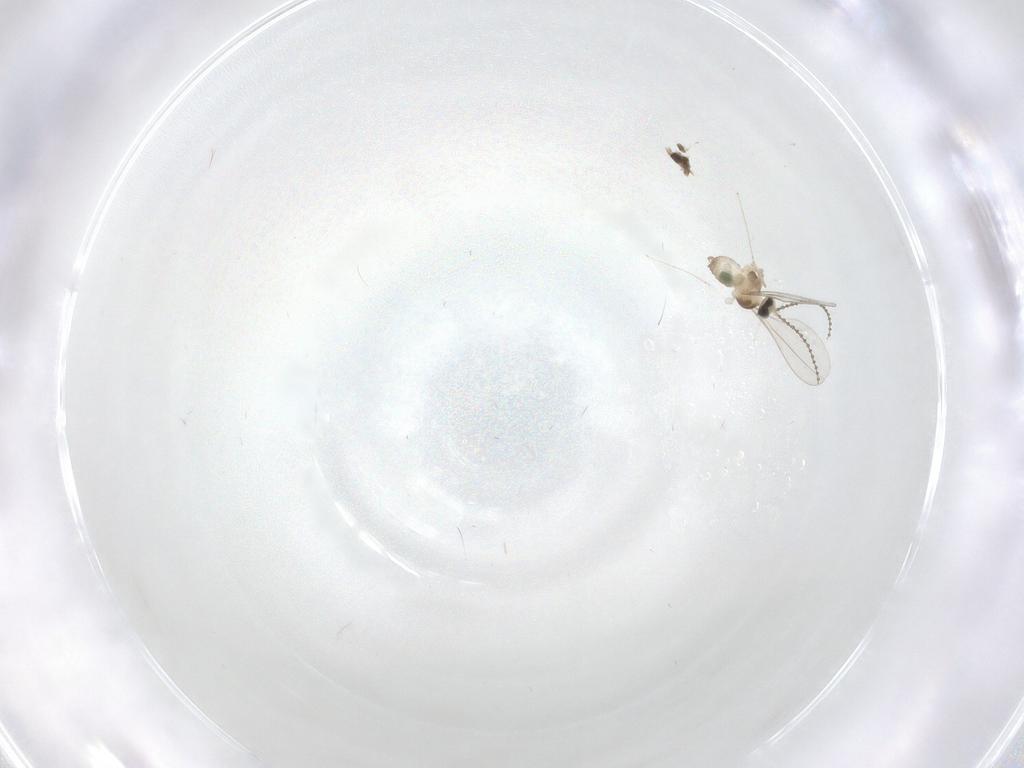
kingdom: Animalia
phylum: Arthropoda
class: Insecta
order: Diptera
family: Cecidomyiidae
